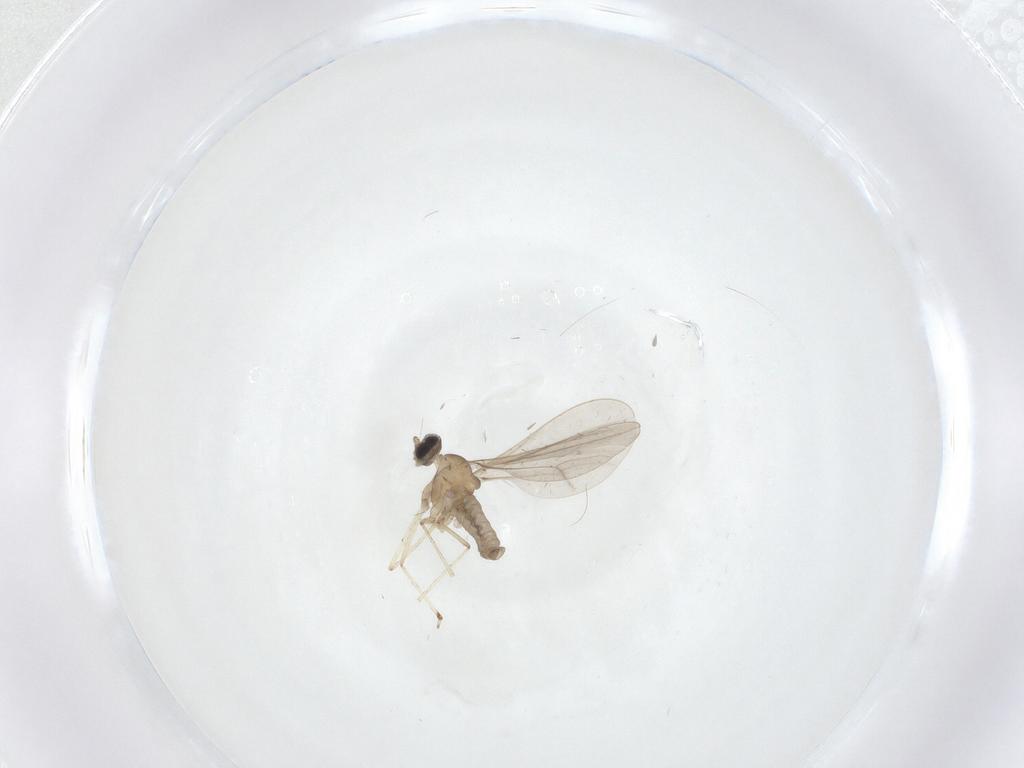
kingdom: Animalia
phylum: Arthropoda
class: Insecta
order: Diptera
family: Cecidomyiidae
